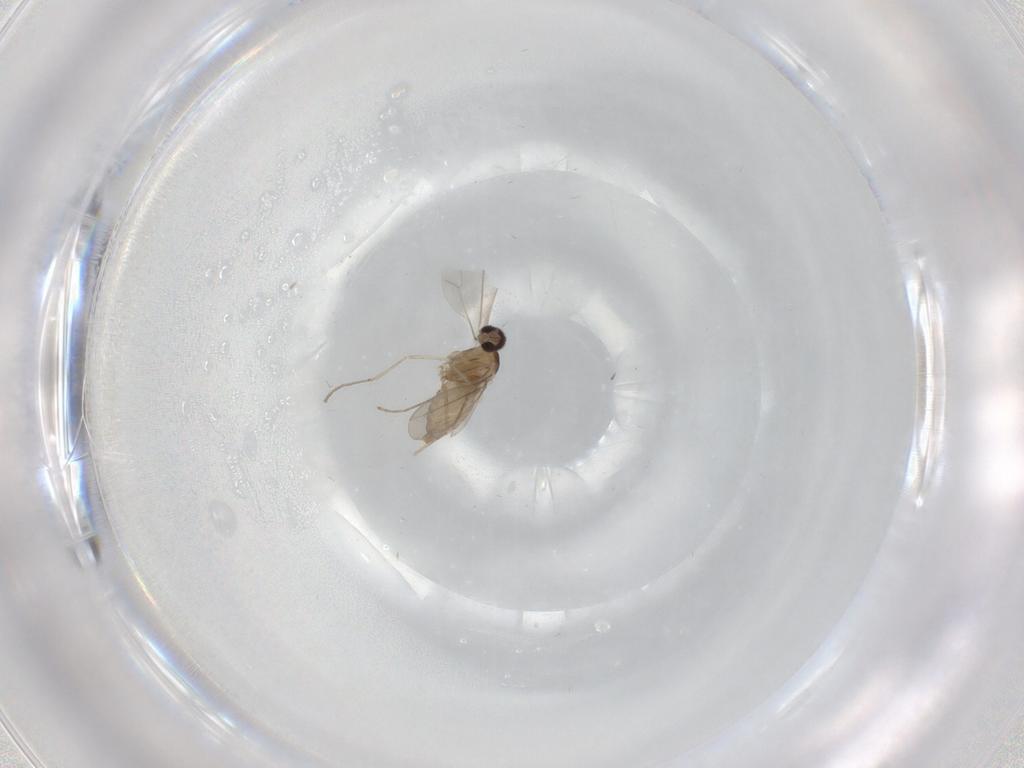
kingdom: Animalia
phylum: Arthropoda
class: Insecta
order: Diptera
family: Cecidomyiidae
